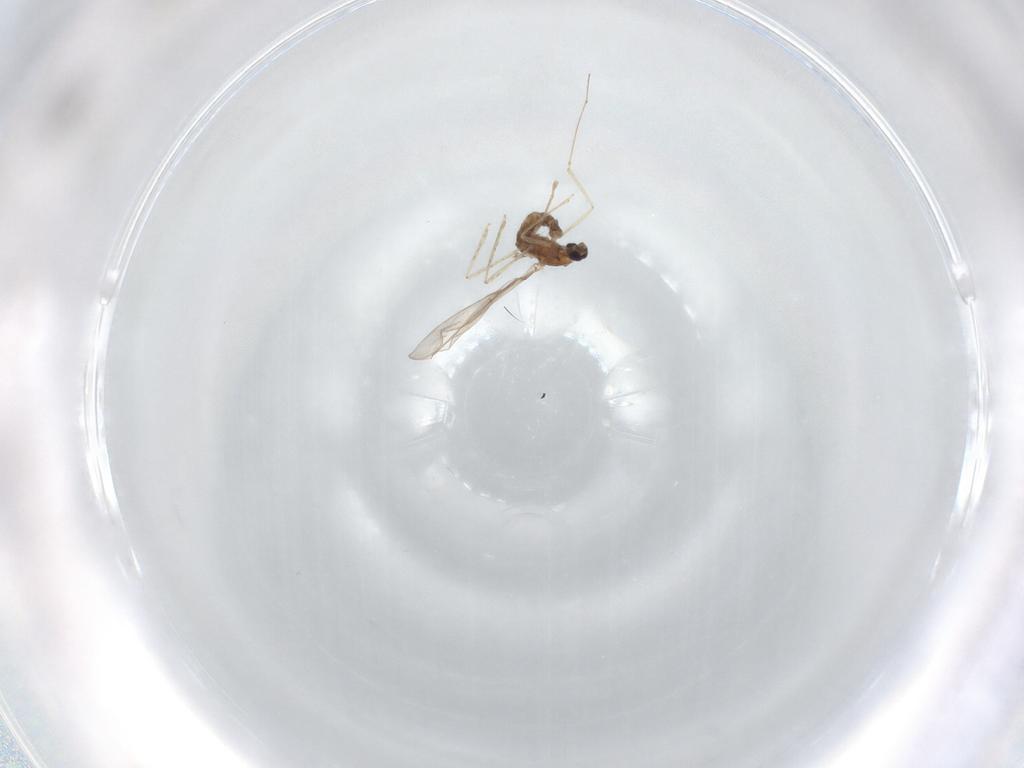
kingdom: Animalia
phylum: Arthropoda
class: Insecta
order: Diptera
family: Cecidomyiidae
